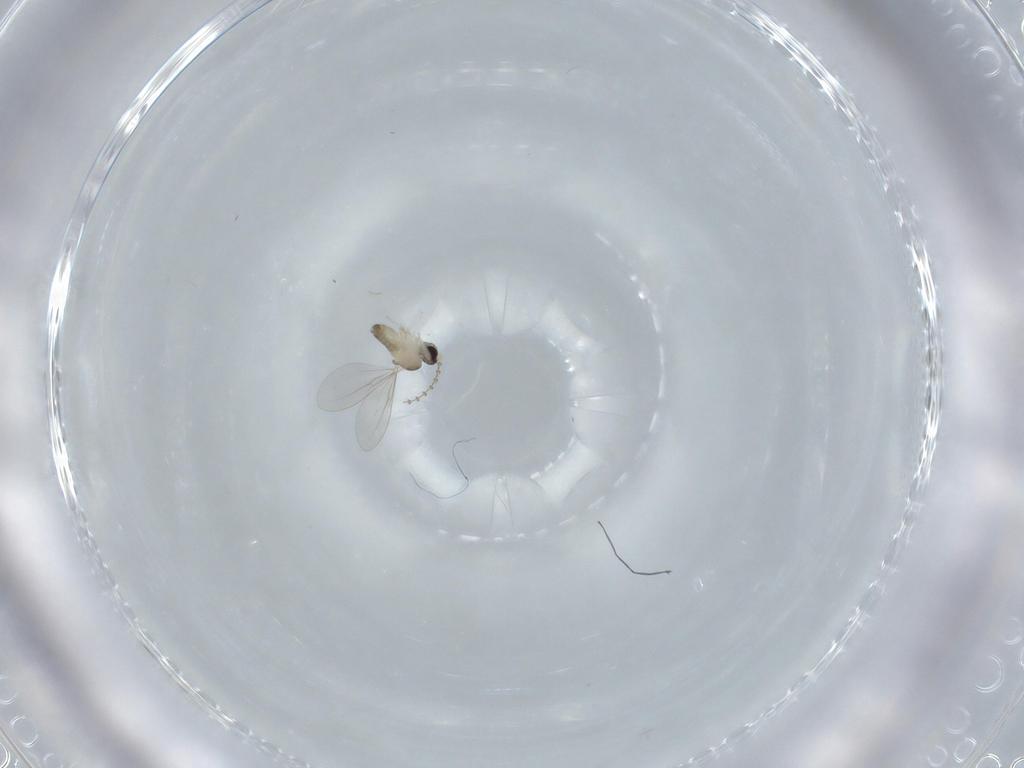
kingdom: Animalia
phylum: Arthropoda
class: Insecta
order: Diptera
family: Cecidomyiidae
